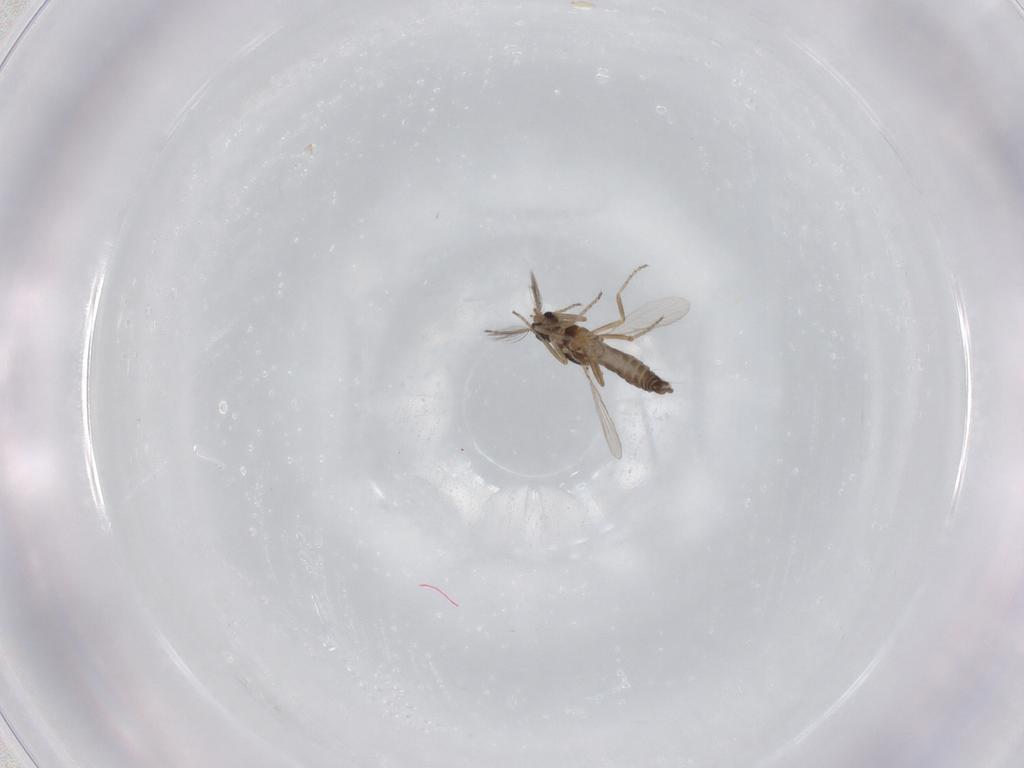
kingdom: Animalia
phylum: Arthropoda
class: Insecta
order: Diptera
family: Ceratopogonidae
